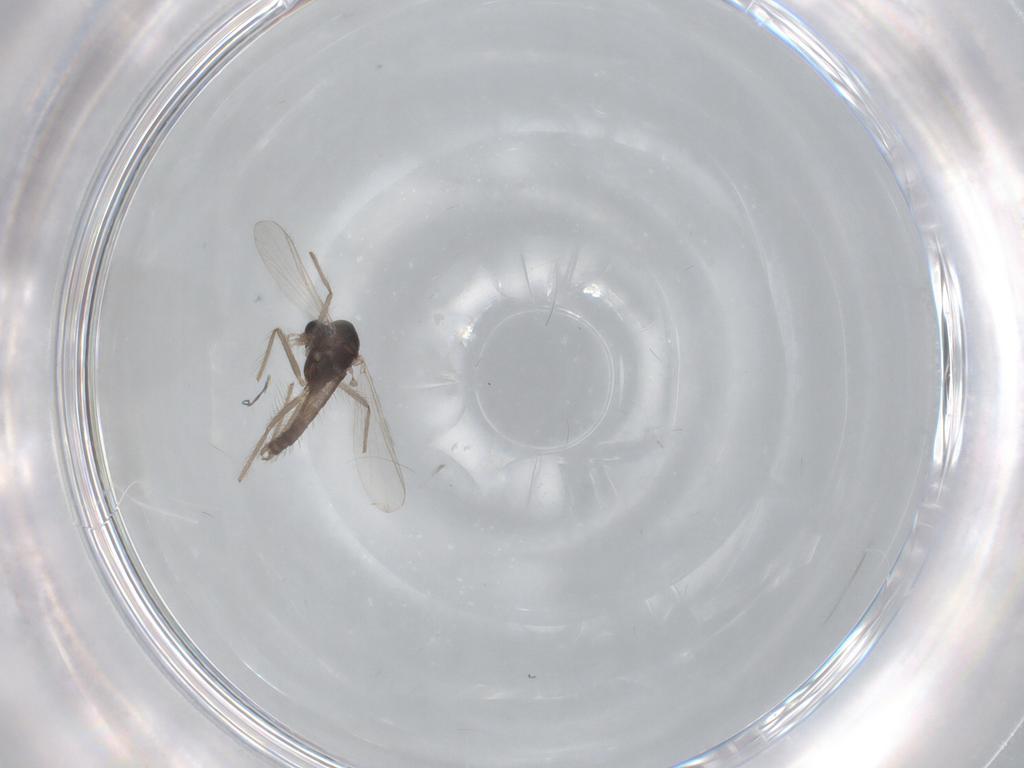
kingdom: Animalia
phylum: Arthropoda
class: Insecta
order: Diptera
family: Chironomidae
